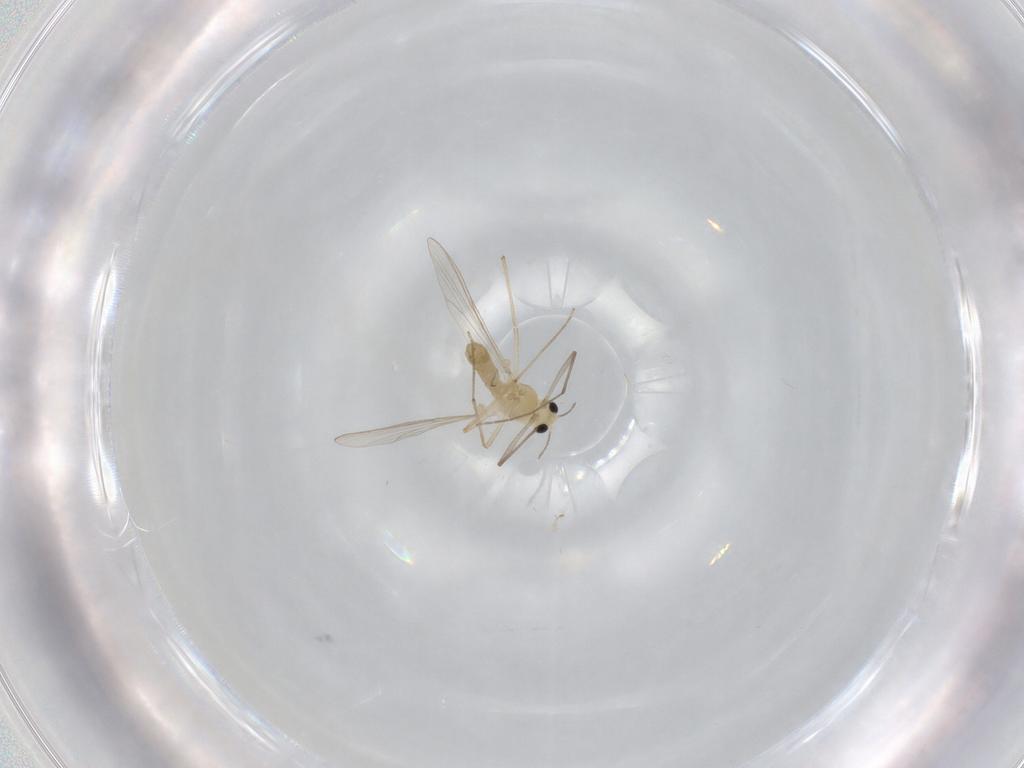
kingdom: Animalia
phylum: Arthropoda
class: Insecta
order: Diptera
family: Chironomidae
